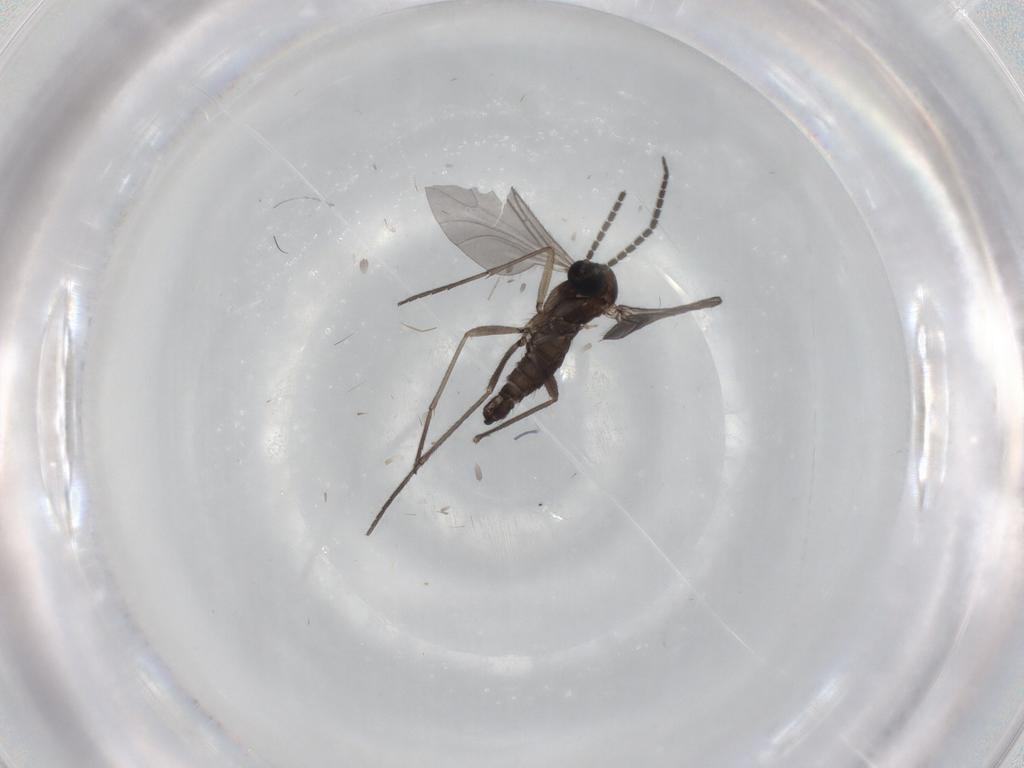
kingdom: Animalia
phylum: Arthropoda
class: Insecta
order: Diptera
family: Sciaridae
